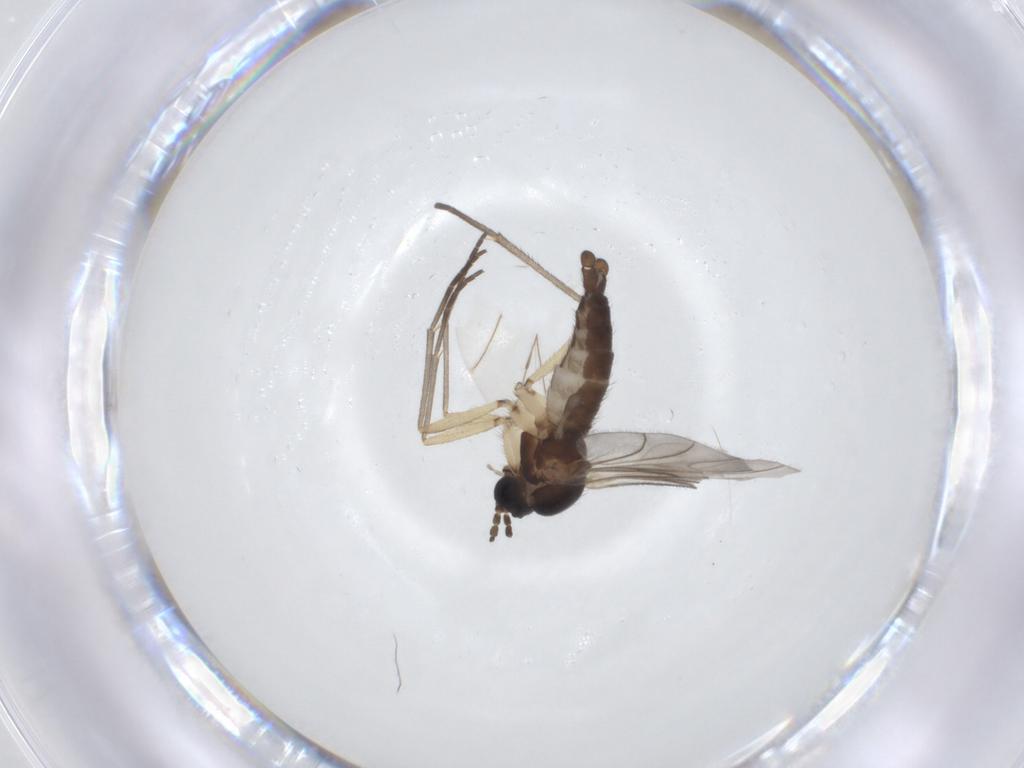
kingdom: Animalia
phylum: Arthropoda
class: Insecta
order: Diptera
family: Sciaridae
